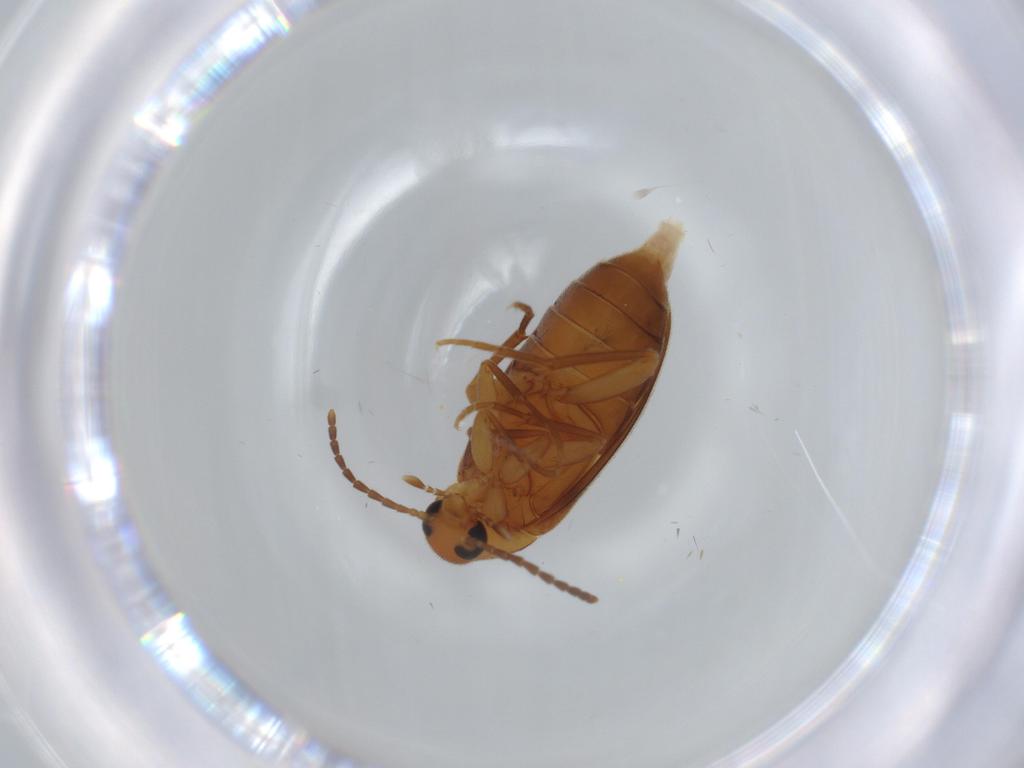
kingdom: Animalia
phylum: Arthropoda
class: Insecta
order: Coleoptera
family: Scraptiidae
